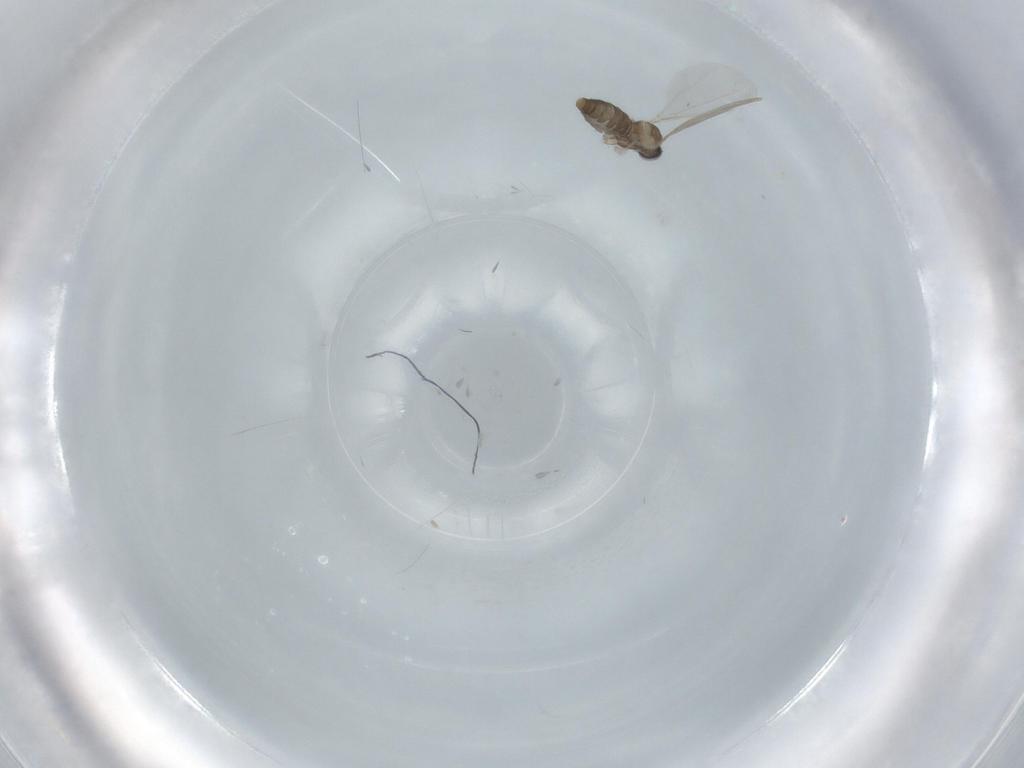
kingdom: Animalia
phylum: Arthropoda
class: Insecta
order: Diptera
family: Cecidomyiidae
